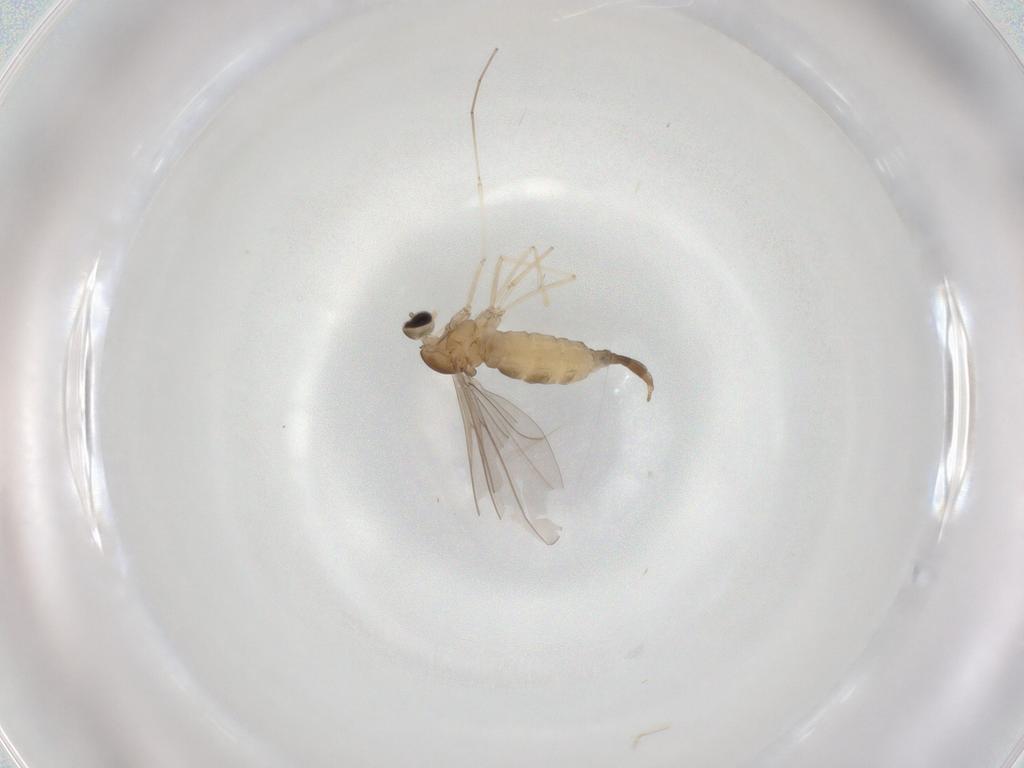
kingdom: Animalia
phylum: Arthropoda
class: Insecta
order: Diptera
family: Cecidomyiidae
